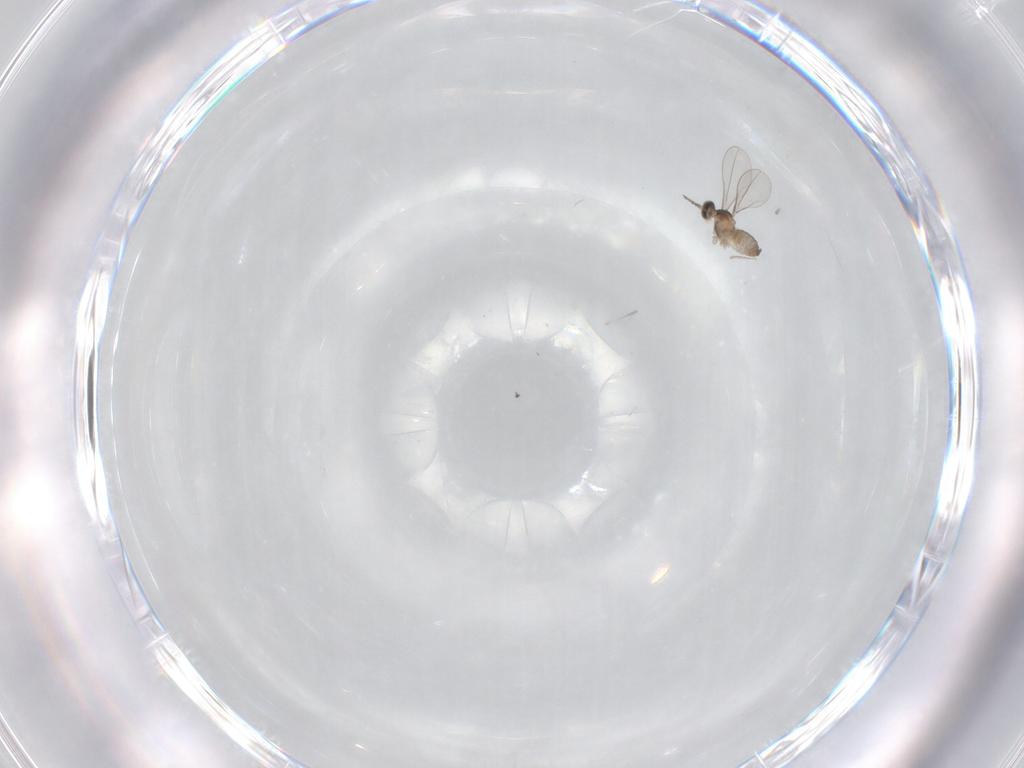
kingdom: Animalia
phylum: Arthropoda
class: Insecta
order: Diptera
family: Cecidomyiidae
